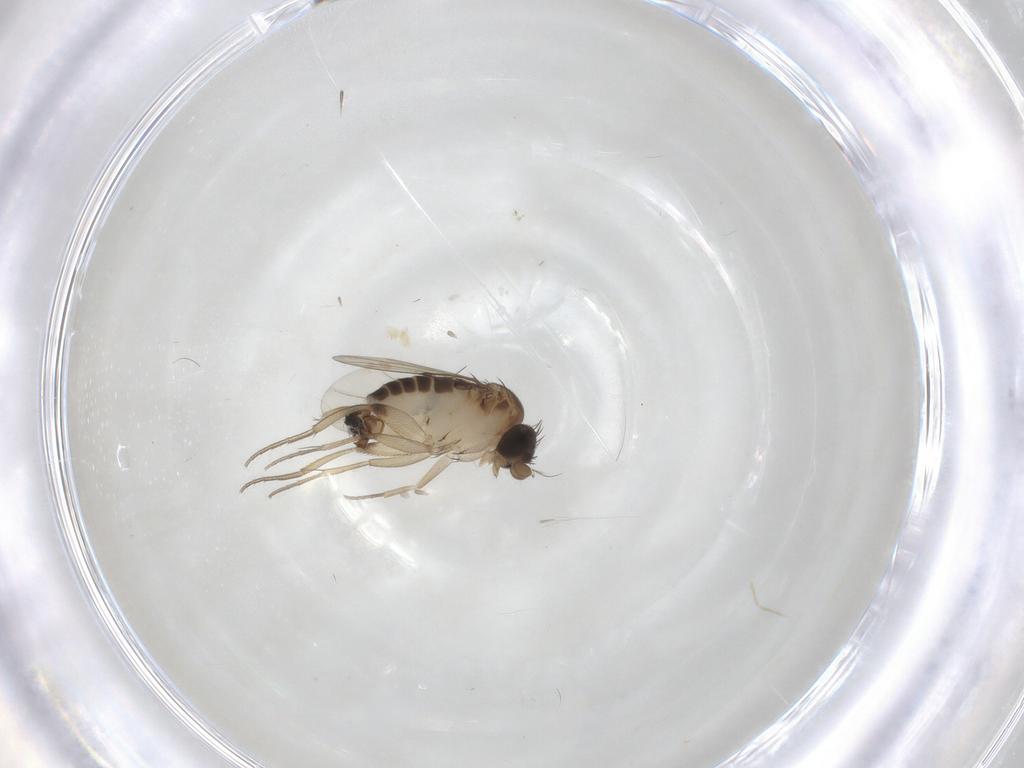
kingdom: Animalia
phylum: Arthropoda
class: Insecta
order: Diptera
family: Phoridae
